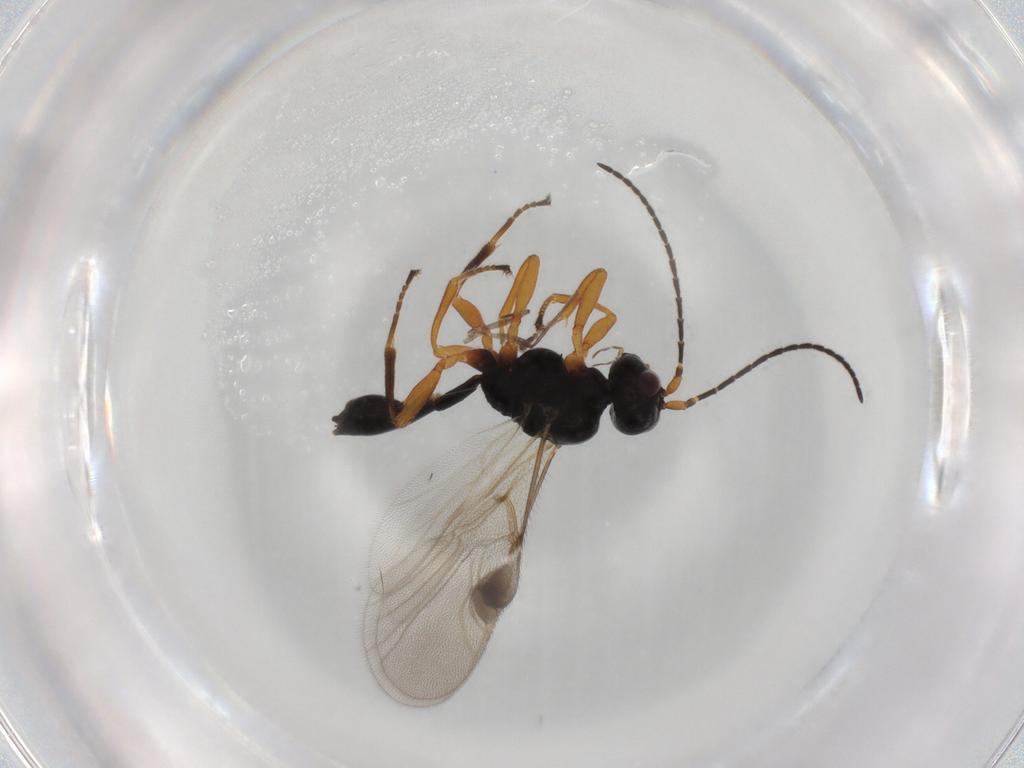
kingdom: Animalia
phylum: Arthropoda
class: Insecta
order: Hymenoptera
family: Braconidae
